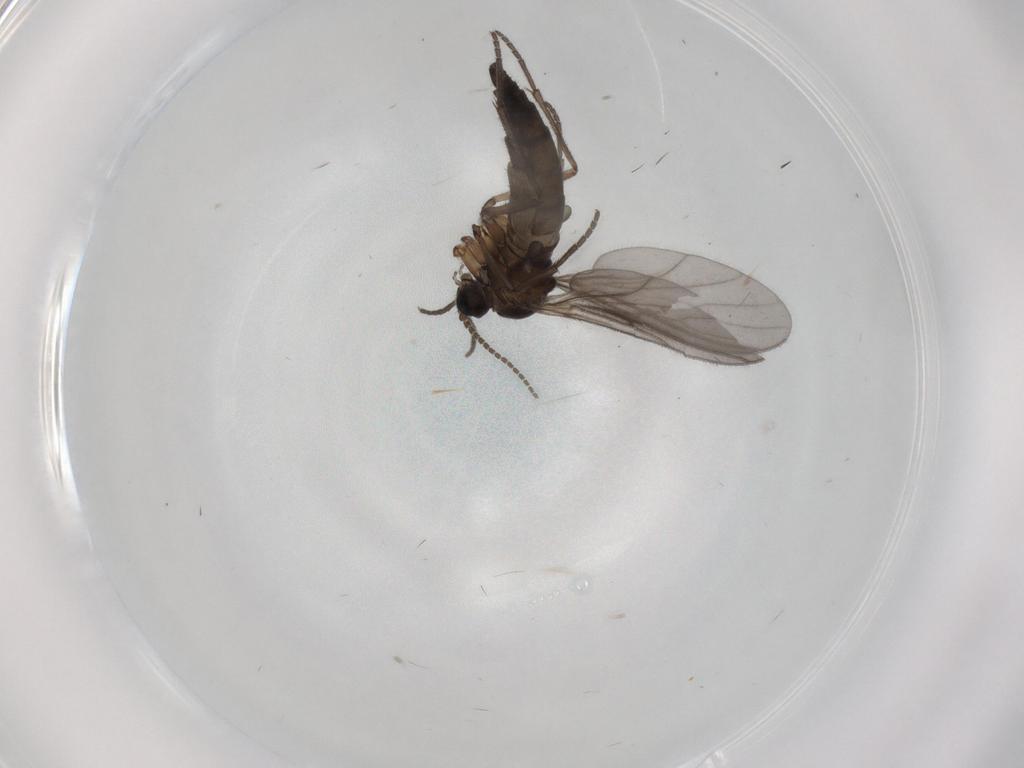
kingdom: Animalia
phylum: Arthropoda
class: Insecta
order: Diptera
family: Sciaridae
